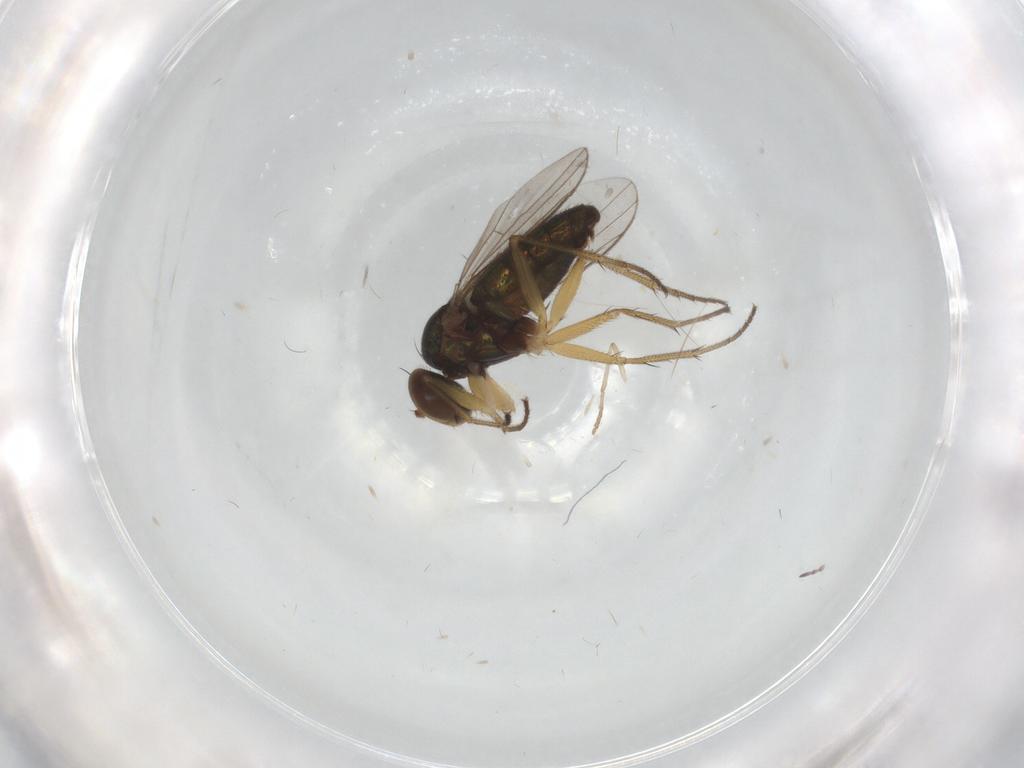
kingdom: Animalia
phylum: Arthropoda
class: Insecta
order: Diptera
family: Dolichopodidae
